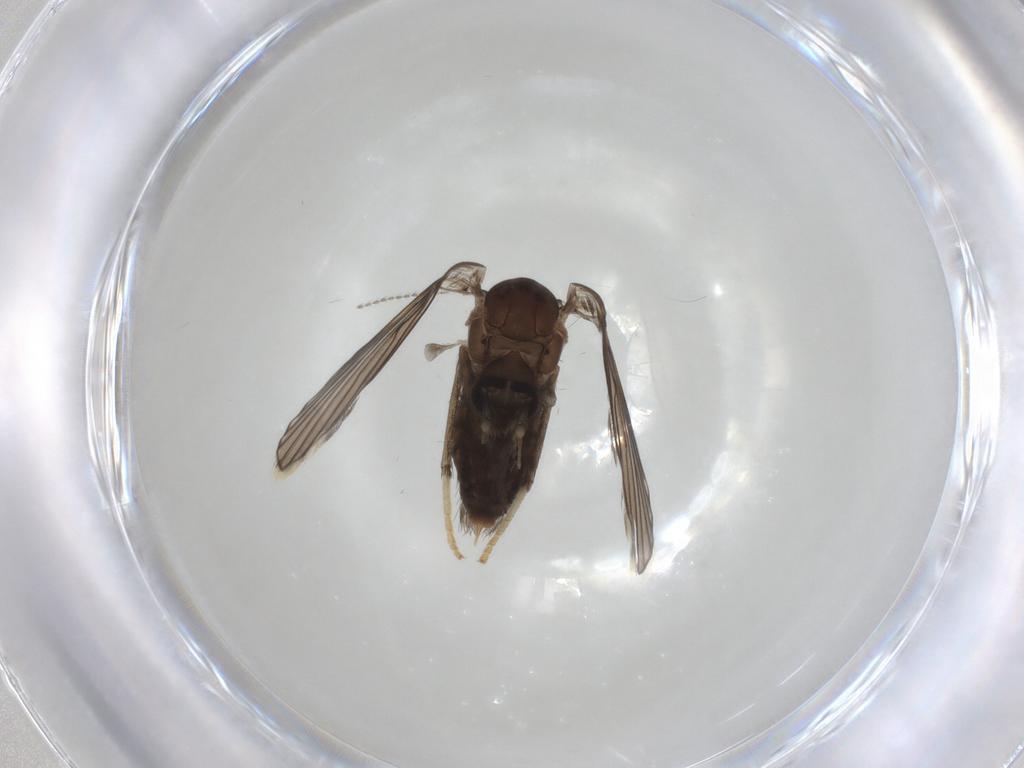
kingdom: Animalia
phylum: Arthropoda
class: Insecta
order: Diptera
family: Psychodidae
